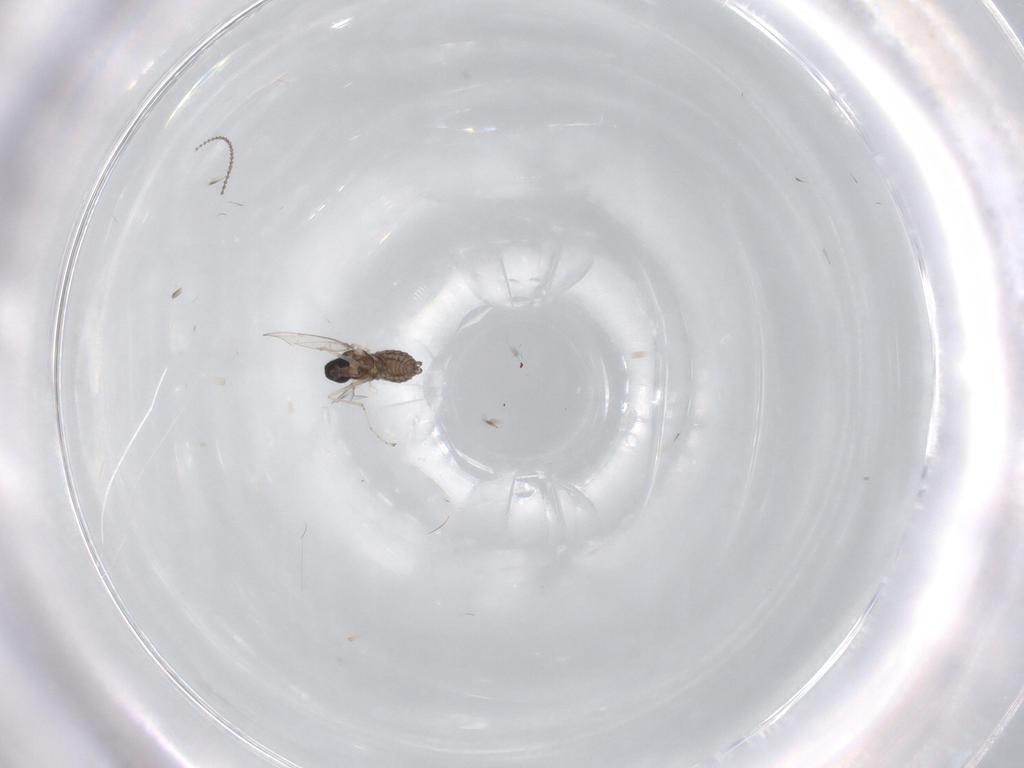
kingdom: Animalia
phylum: Arthropoda
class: Insecta
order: Diptera
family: Cecidomyiidae
